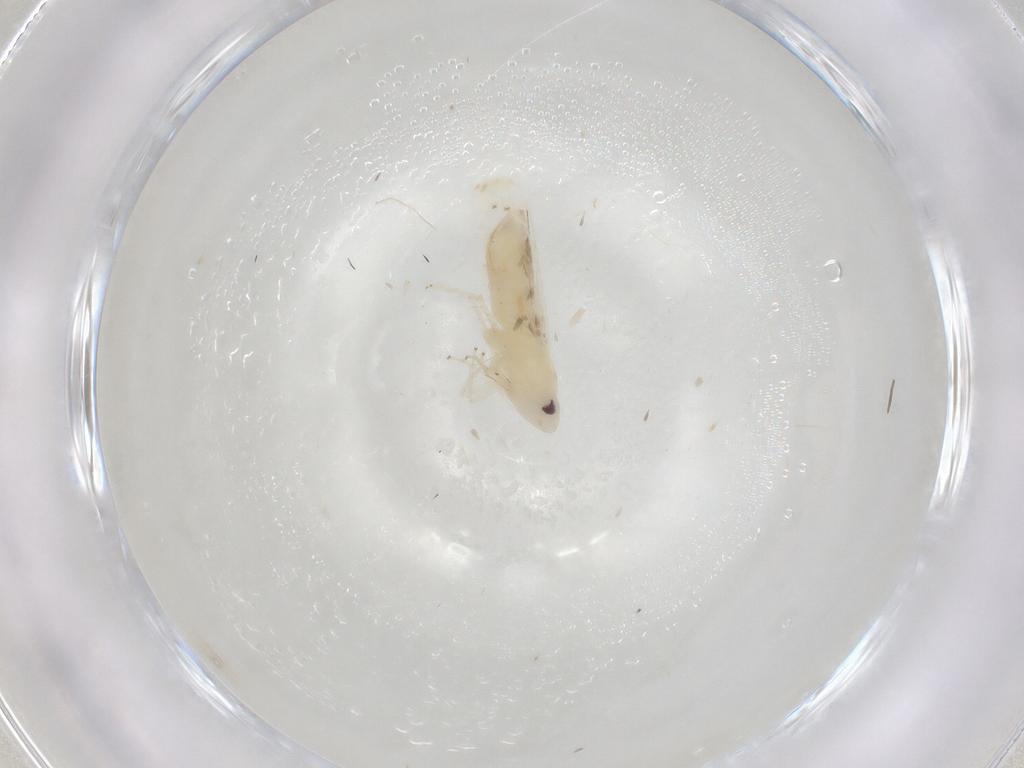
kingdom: Animalia
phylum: Arthropoda
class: Insecta
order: Hemiptera
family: Cicadellidae
